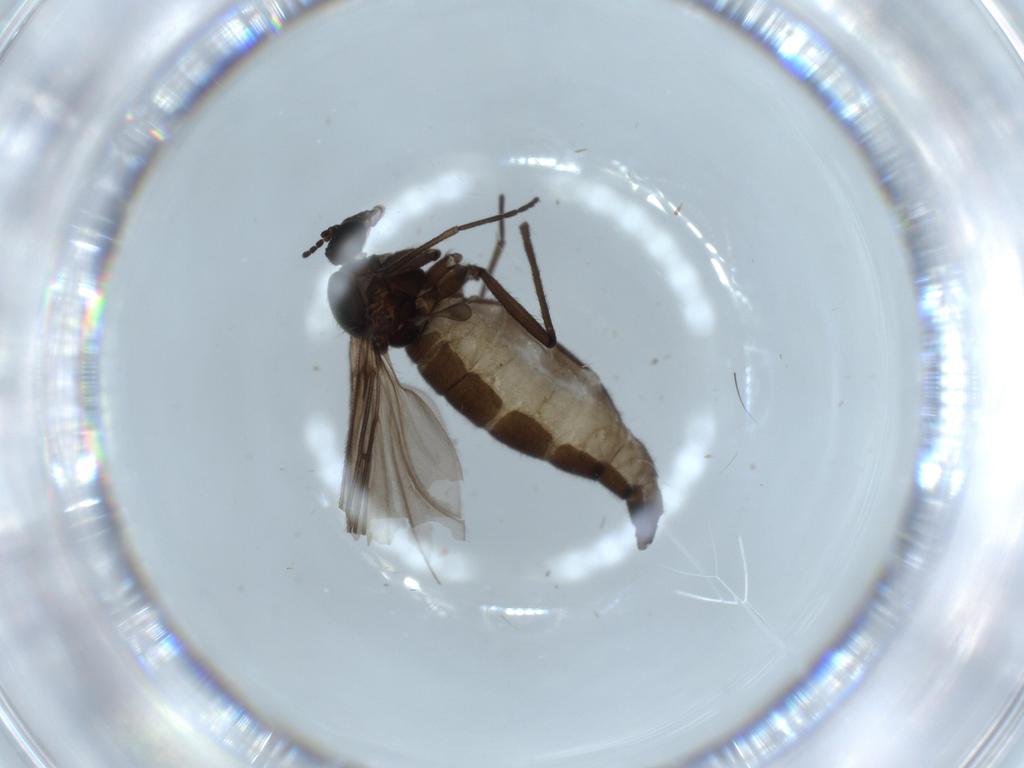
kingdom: Animalia
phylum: Arthropoda
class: Insecta
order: Diptera
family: Sciaridae
